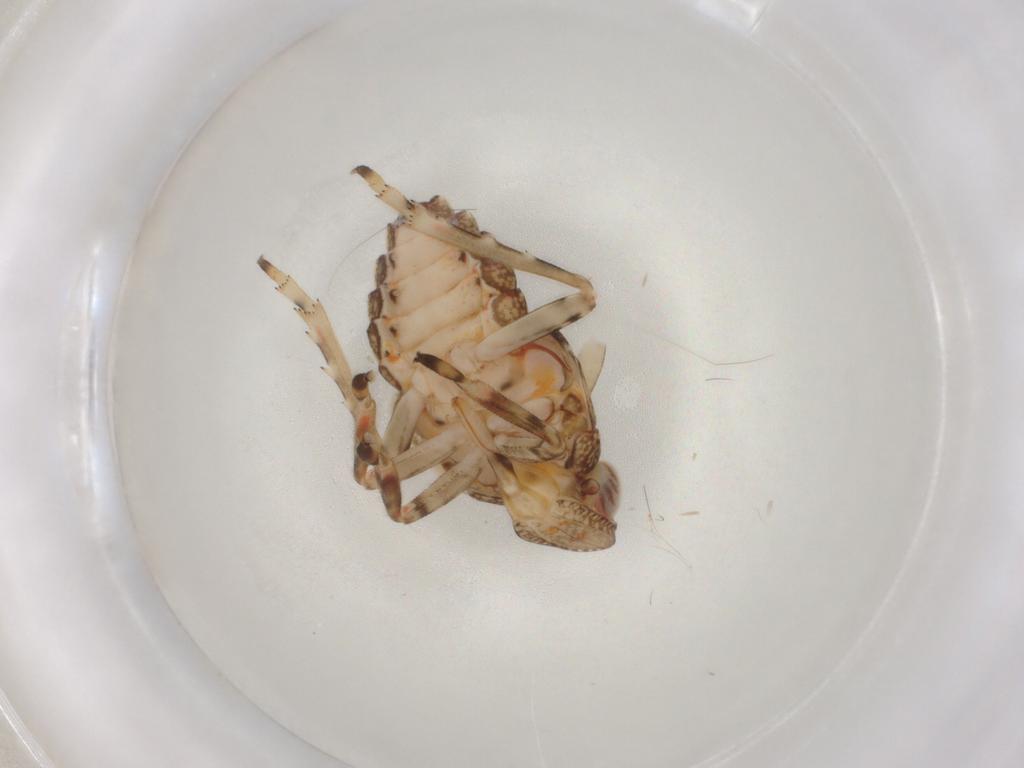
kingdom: Animalia
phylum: Arthropoda
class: Insecta
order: Hemiptera
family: Tropiduchidae
